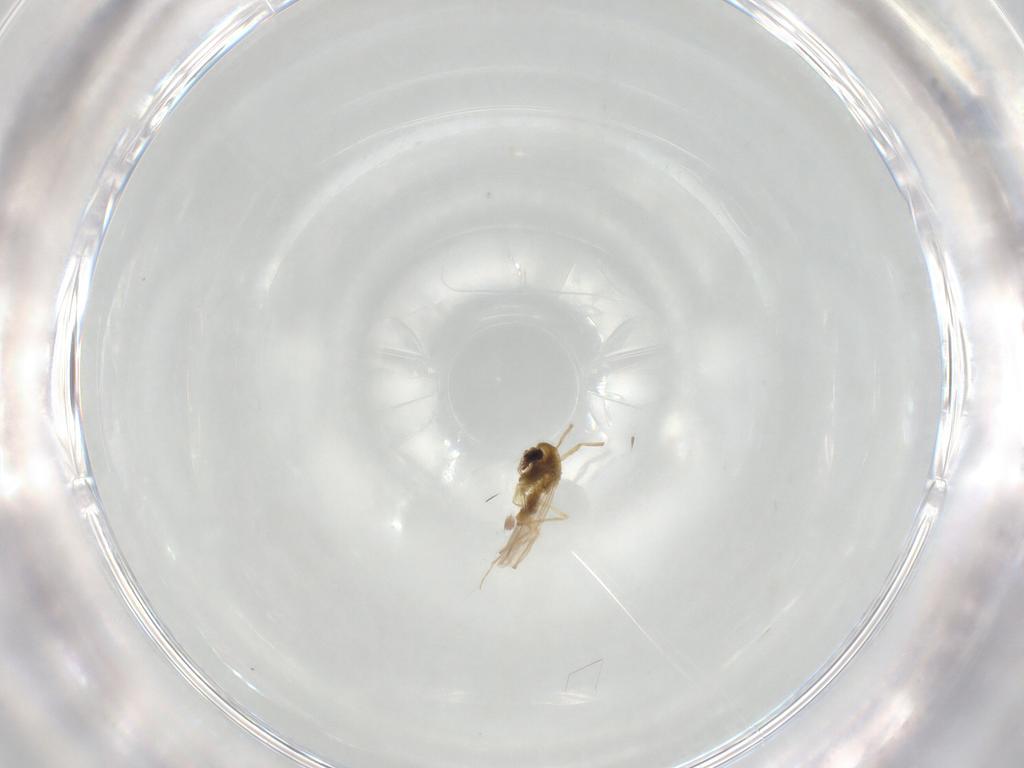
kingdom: Animalia
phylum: Arthropoda
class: Insecta
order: Diptera
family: Chironomidae
